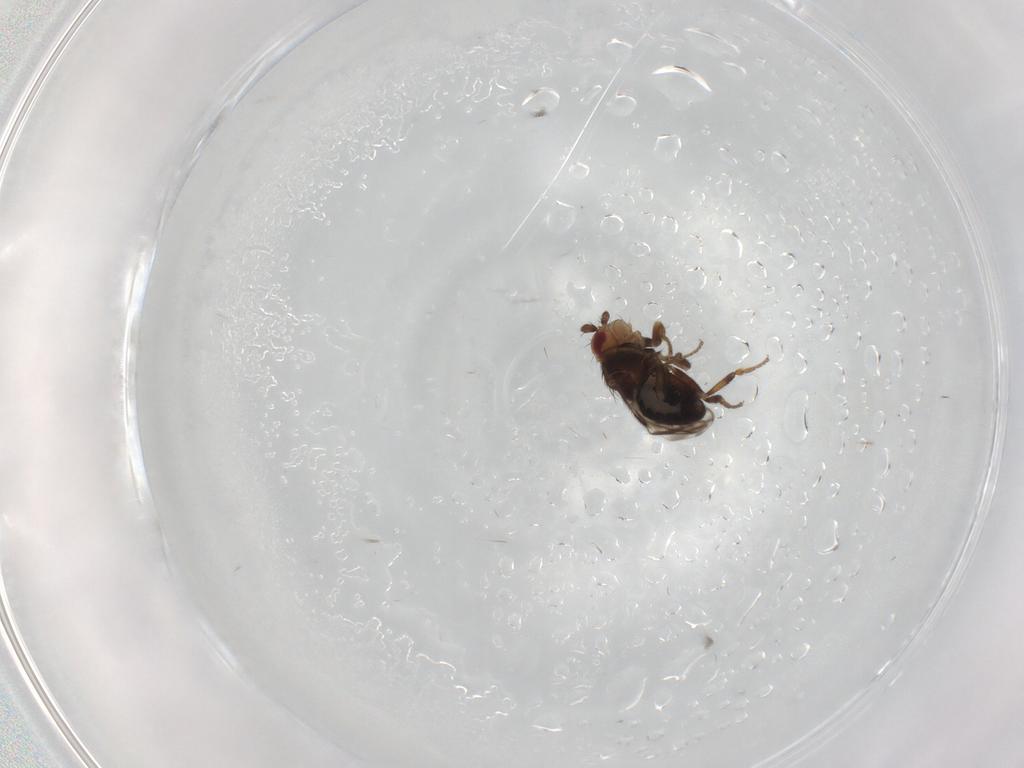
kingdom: Animalia
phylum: Arthropoda
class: Insecta
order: Diptera
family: Sphaeroceridae
